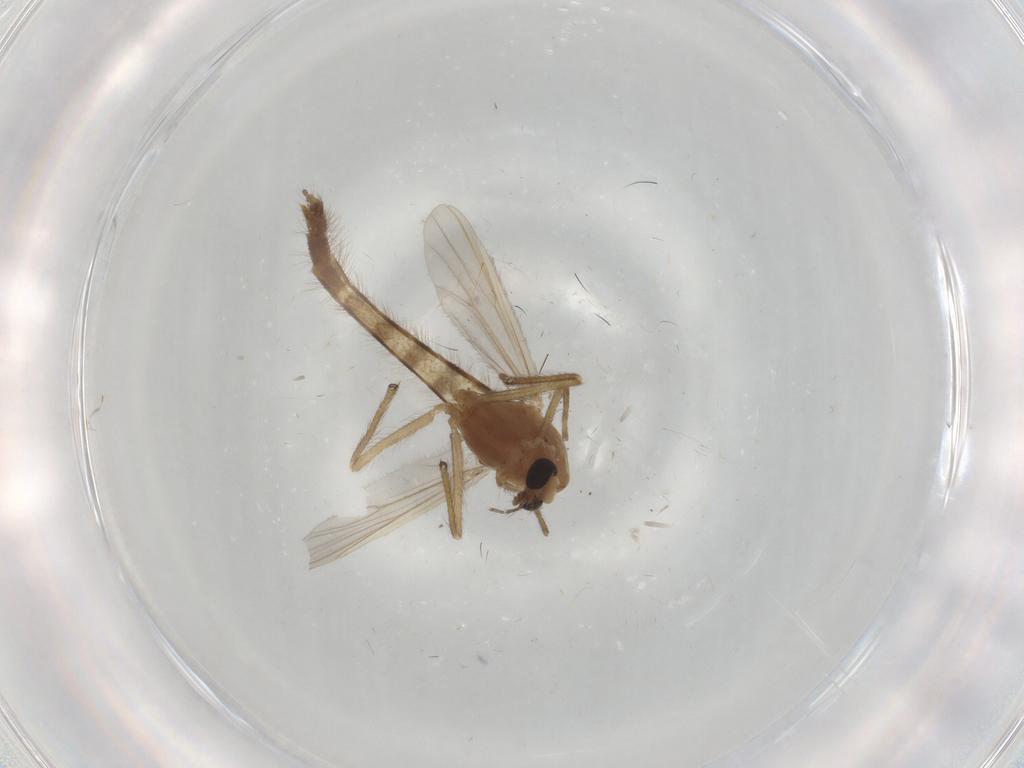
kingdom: Animalia
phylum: Arthropoda
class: Insecta
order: Diptera
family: Chironomidae
